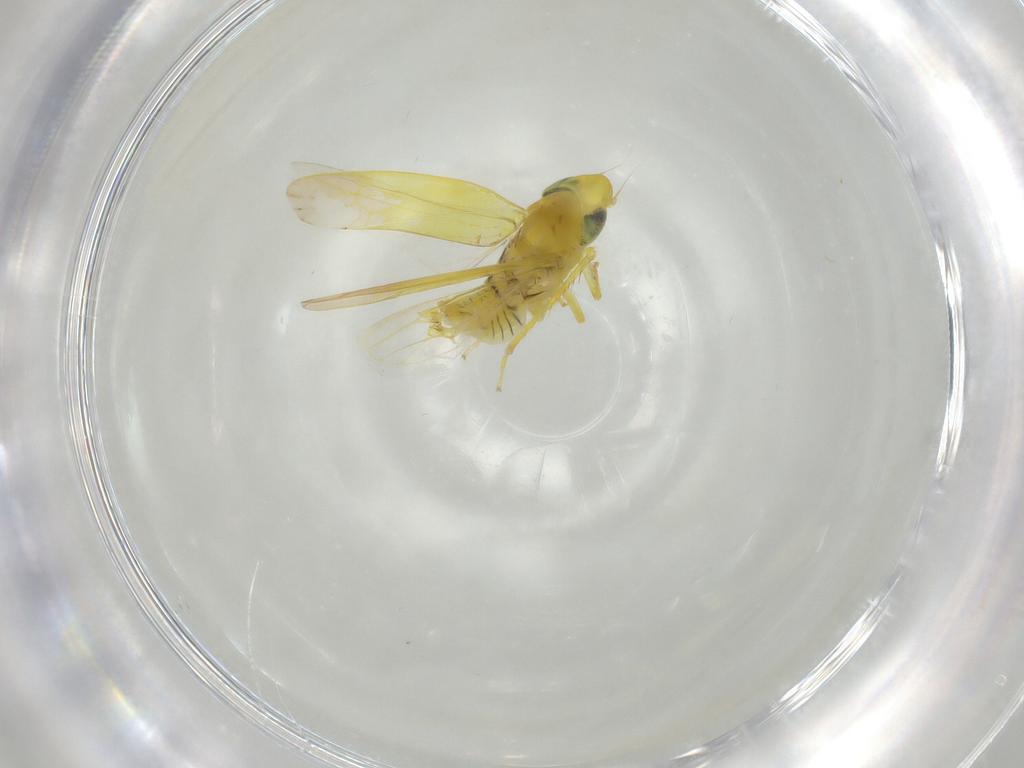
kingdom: Animalia
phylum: Arthropoda
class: Insecta
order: Hemiptera
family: Cicadellidae
